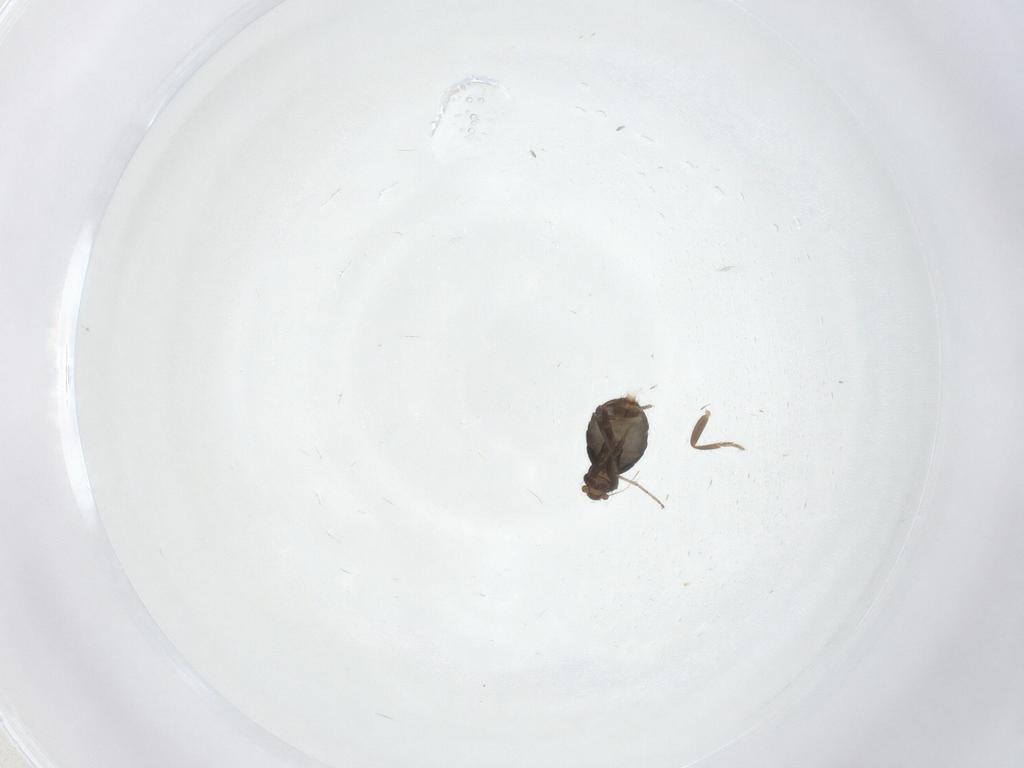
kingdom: Animalia
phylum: Arthropoda
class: Insecta
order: Diptera
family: Phoridae
